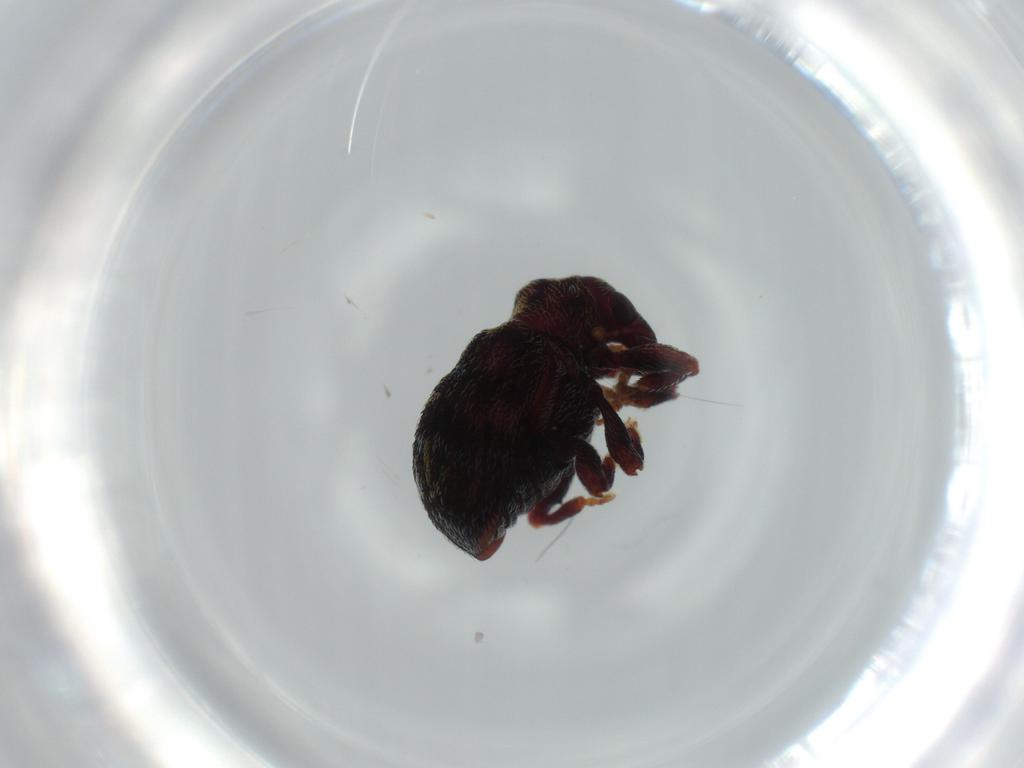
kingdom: Animalia
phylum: Arthropoda
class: Insecta
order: Coleoptera
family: Curculionidae
